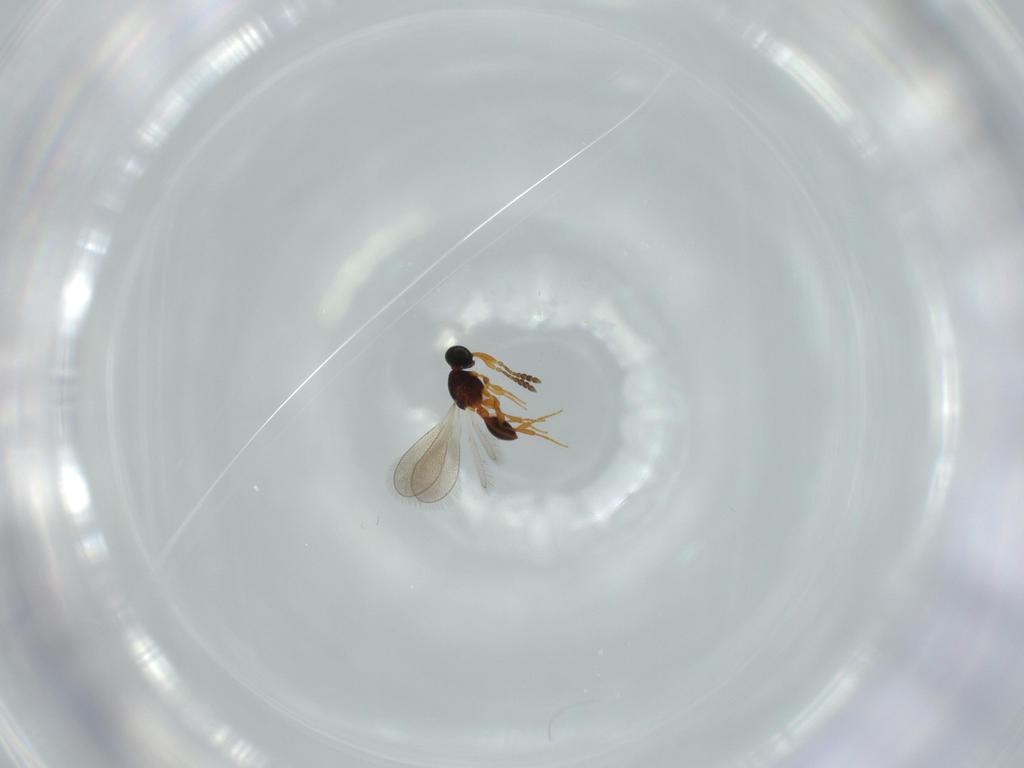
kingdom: Animalia
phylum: Arthropoda
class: Insecta
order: Hymenoptera
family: Platygastridae
